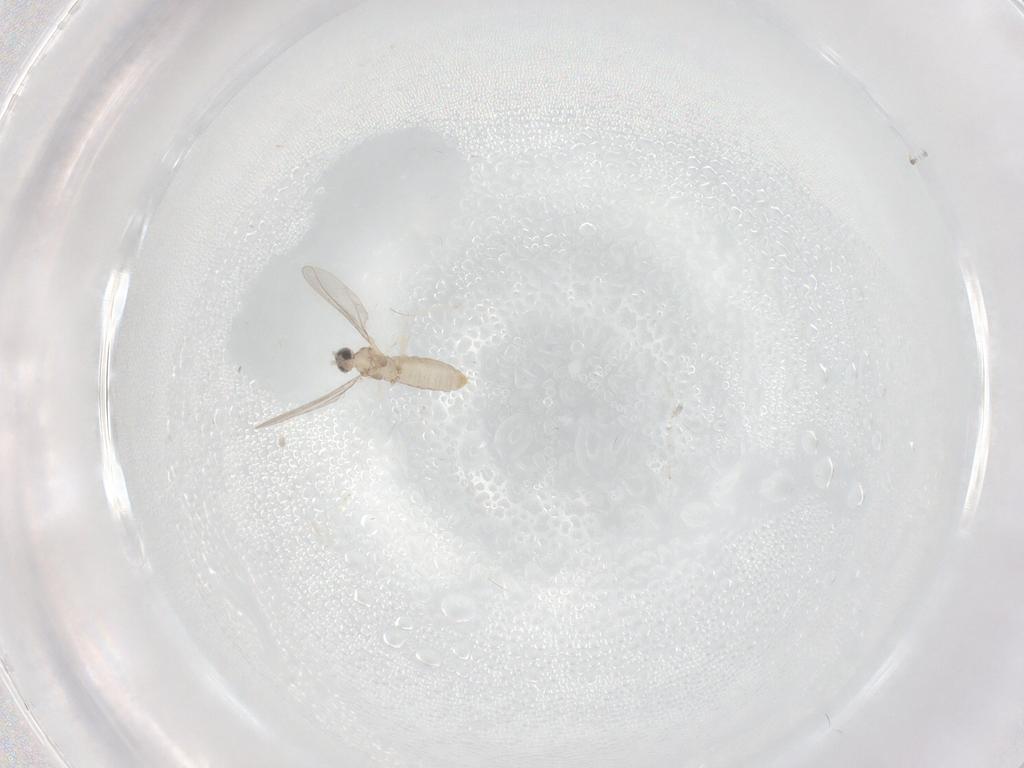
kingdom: Animalia
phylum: Arthropoda
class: Insecta
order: Diptera
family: Cecidomyiidae
